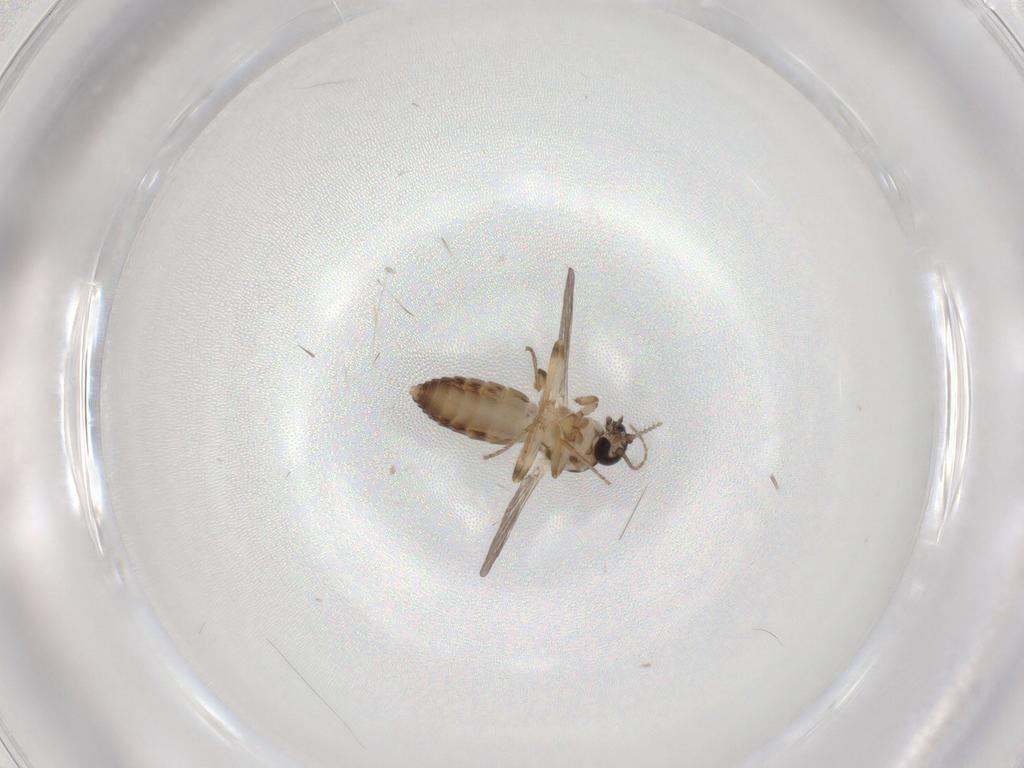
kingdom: Animalia
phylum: Arthropoda
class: Insecta
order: Diptera
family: Ceratopogonidae
